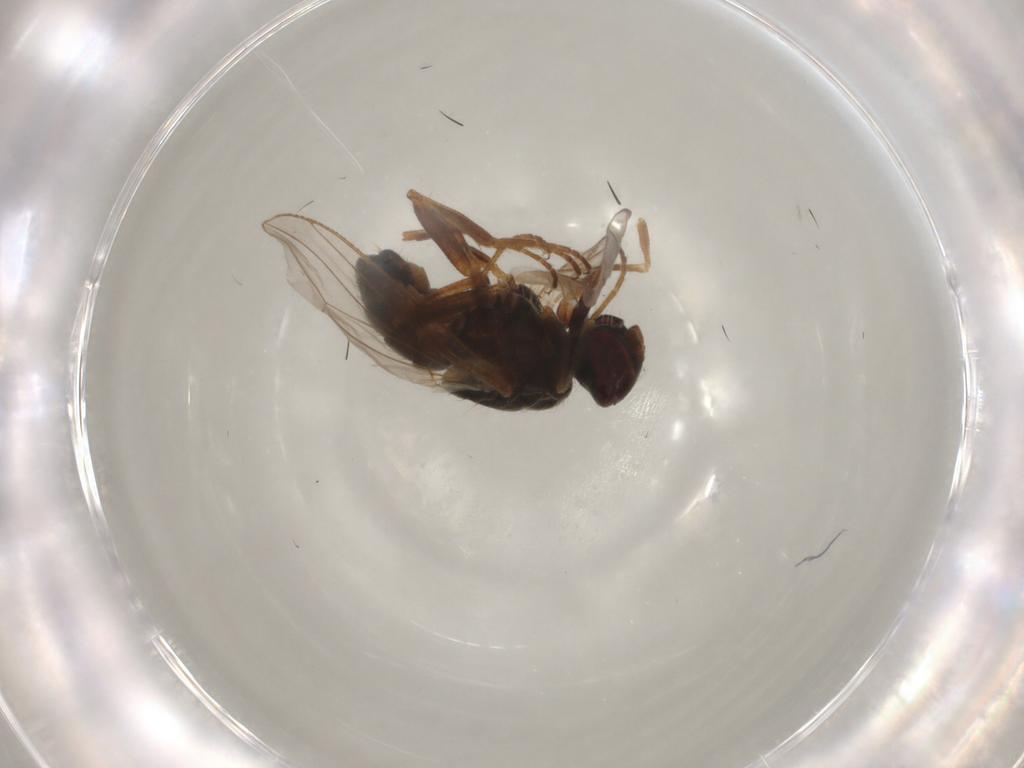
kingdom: Animalia
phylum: Arthropoda
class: Insecta
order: Diptera
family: Muscidae
